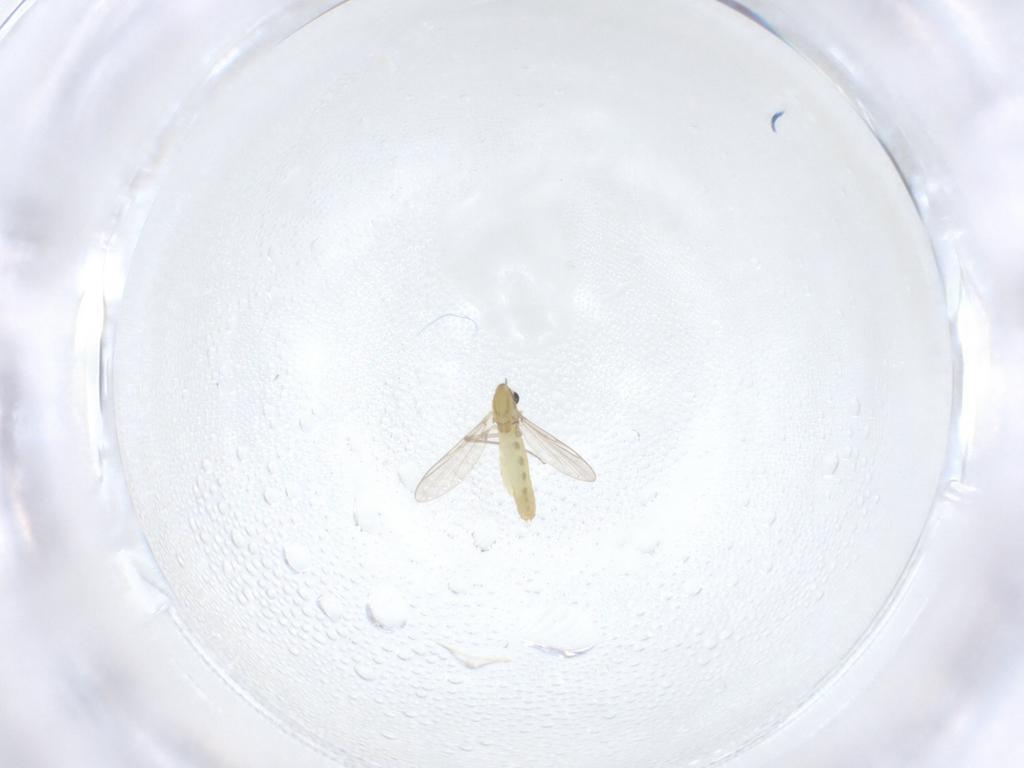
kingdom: Animalia
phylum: Arthropoda
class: Insecta
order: Diptera
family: Chironomidae
